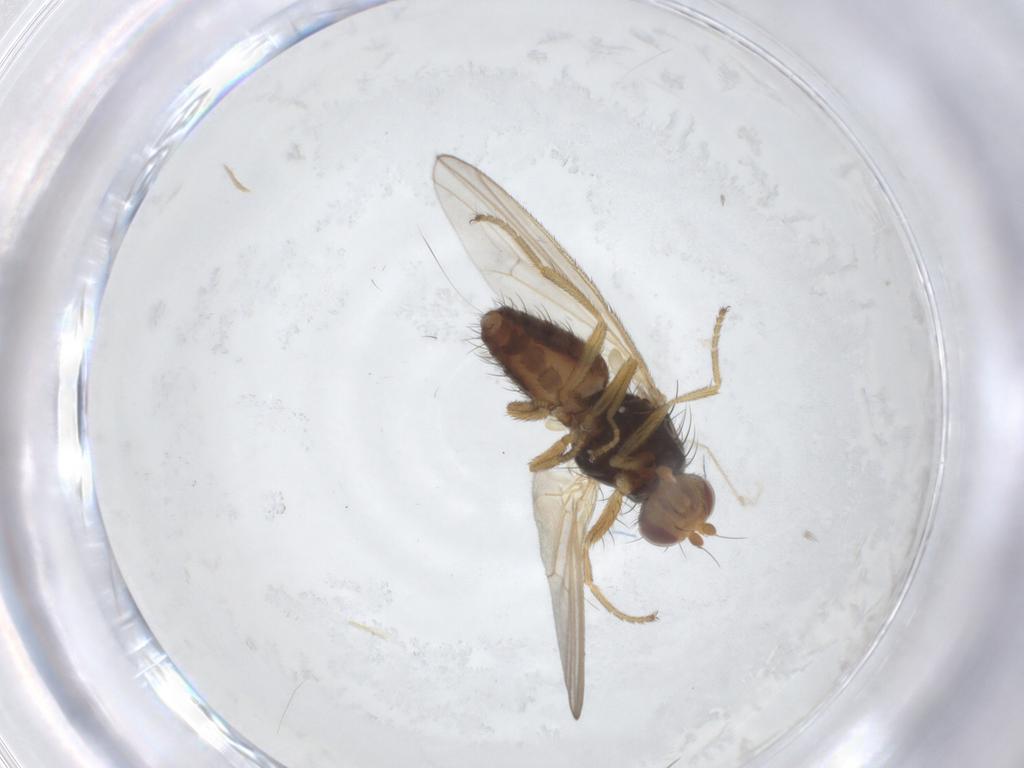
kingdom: Animalia
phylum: Arthropoda
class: Insecta
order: Diptera
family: Heleomyzidae
